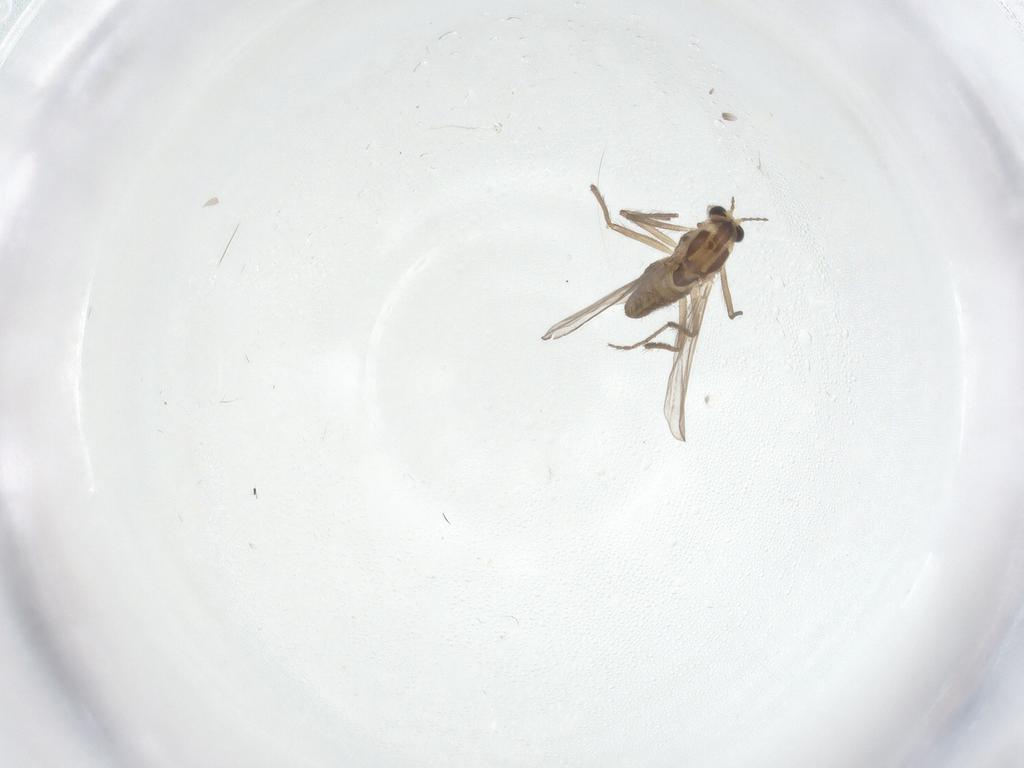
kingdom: Animalia
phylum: Arthropoda
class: Insecta
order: Diptera
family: Chironomidae
